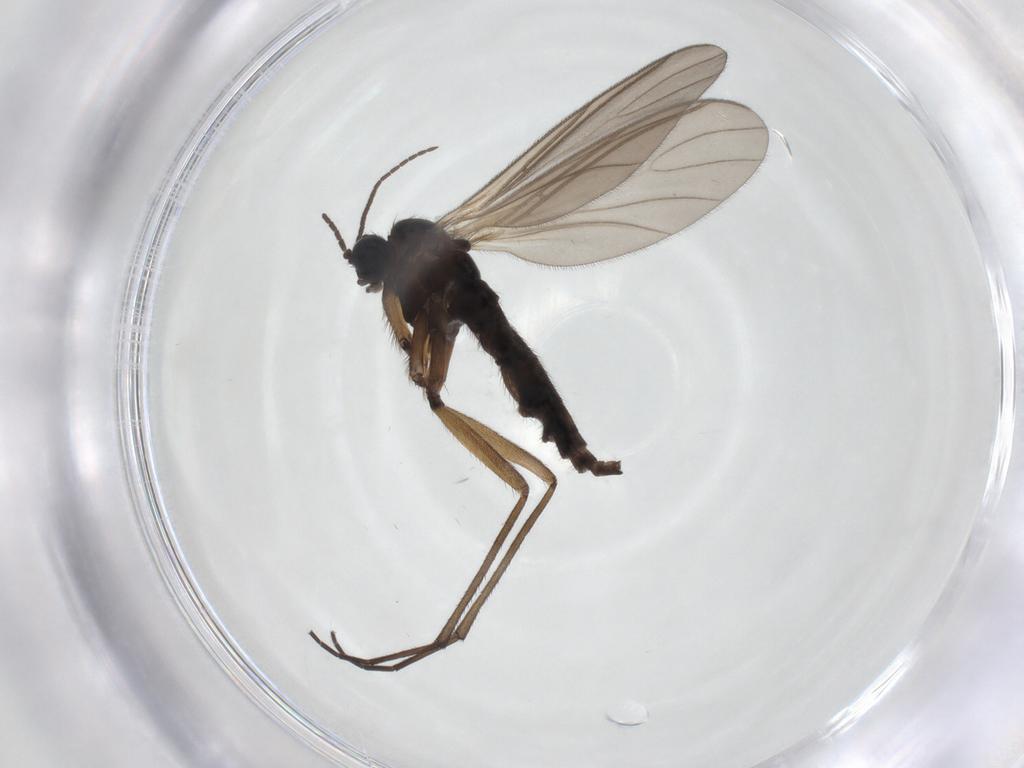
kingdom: Animalia
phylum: Arthropoda
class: Insecta
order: Diptera
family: Sciaridae
